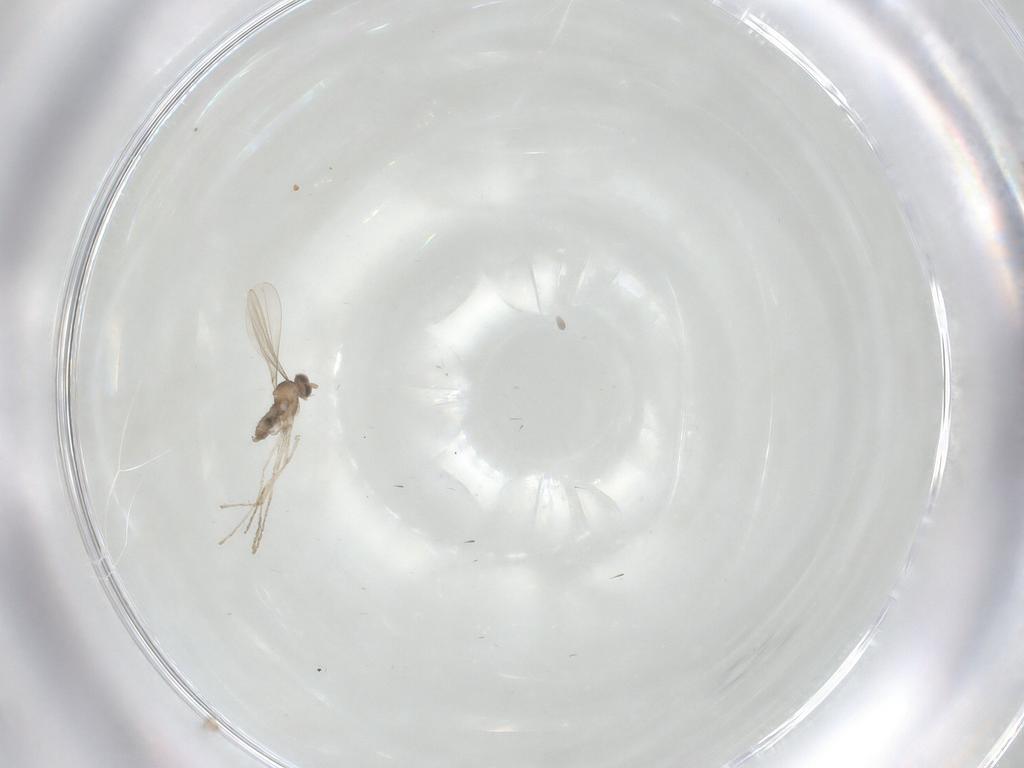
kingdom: Animalia
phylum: Arthropoda
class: Insecta
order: Diptera
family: Cecidomyiidae
